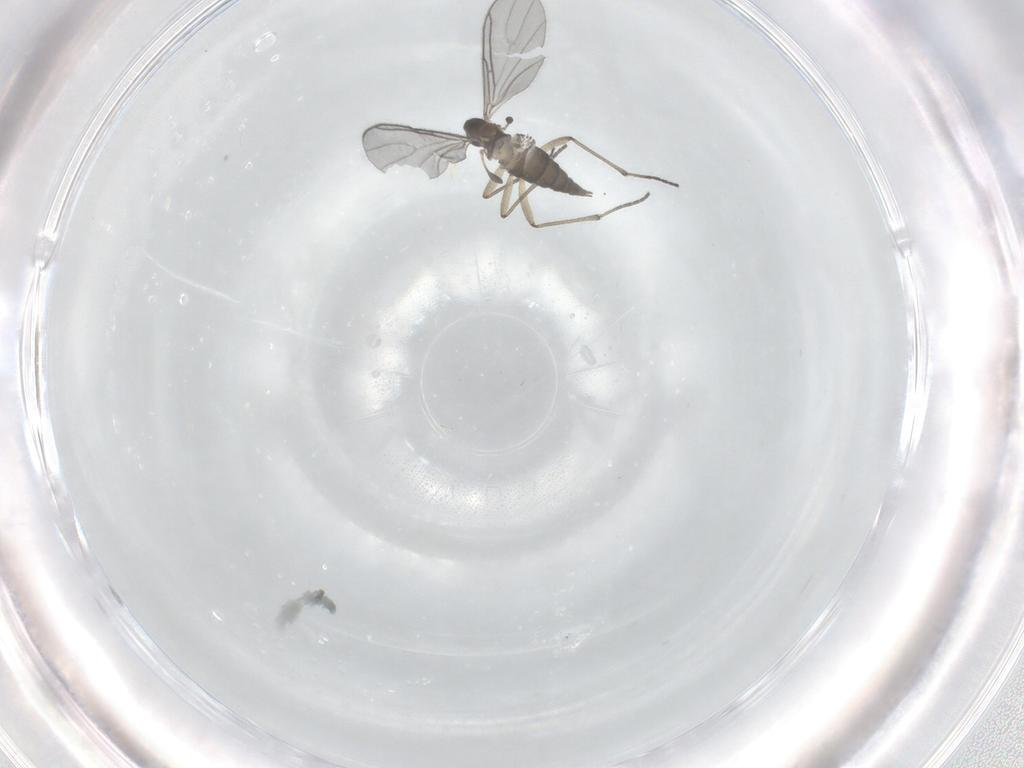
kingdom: Animalia
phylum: Arthropoda
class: Insecta
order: Diptera
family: Sciaridae
